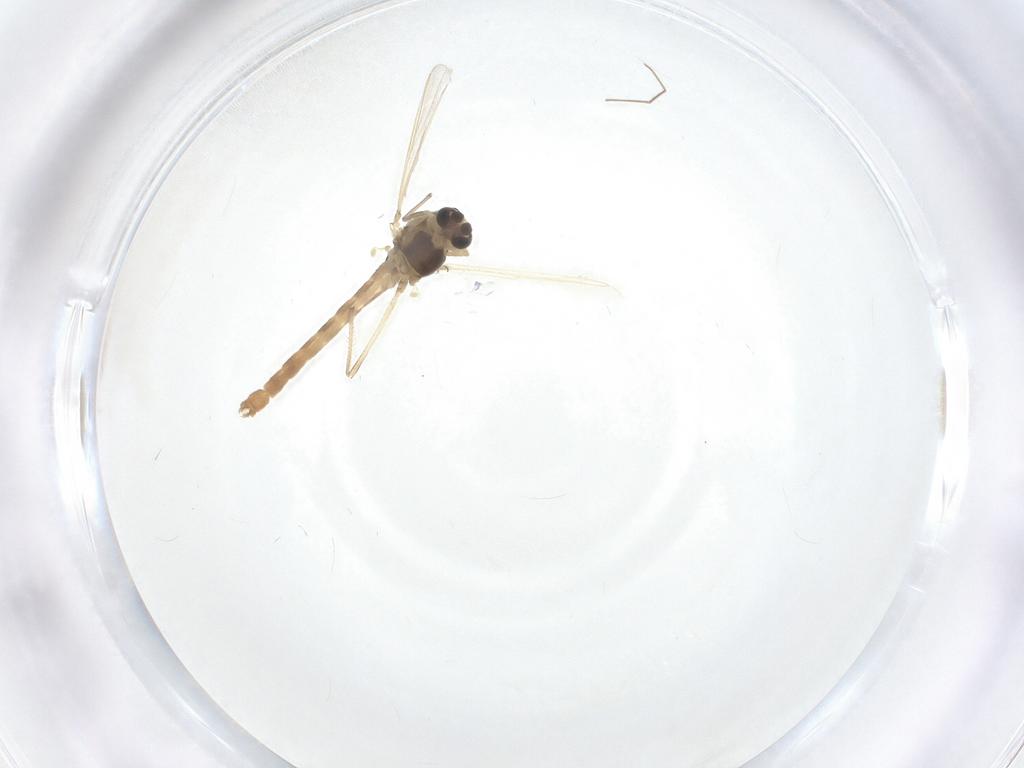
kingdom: Animalia
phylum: Arthropoda
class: Insecta
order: Diptera
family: Chironomidae
